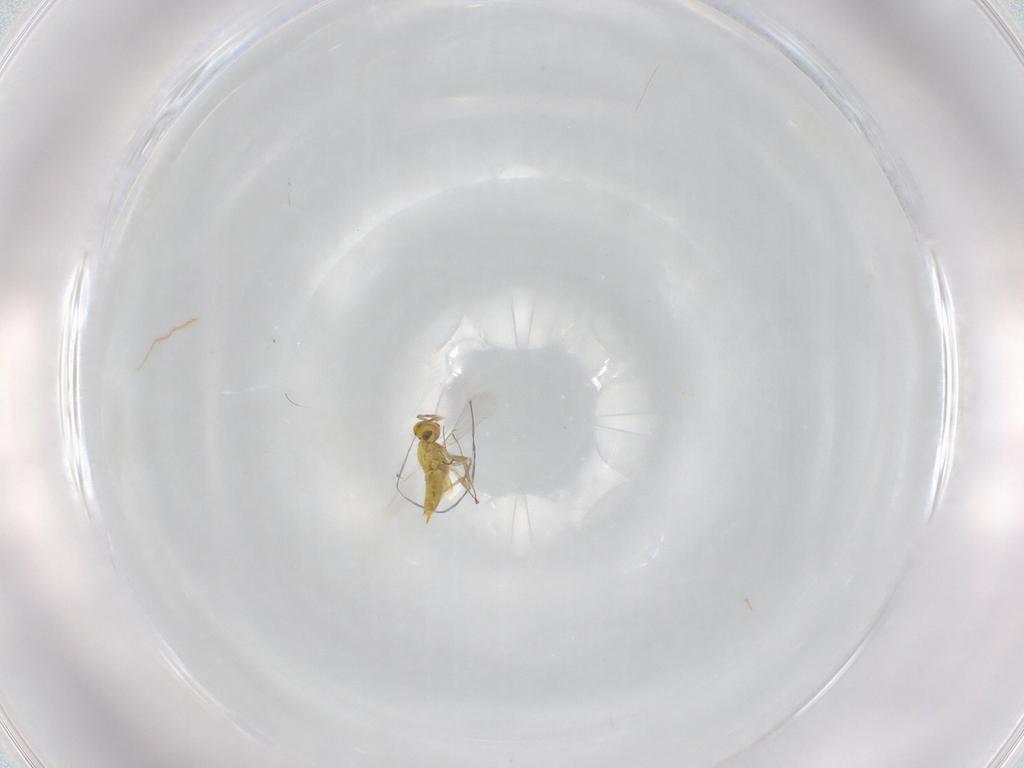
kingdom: Animalia
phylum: Arthropoda
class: Insecta
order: Hymenoptera
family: Aphelinidae
